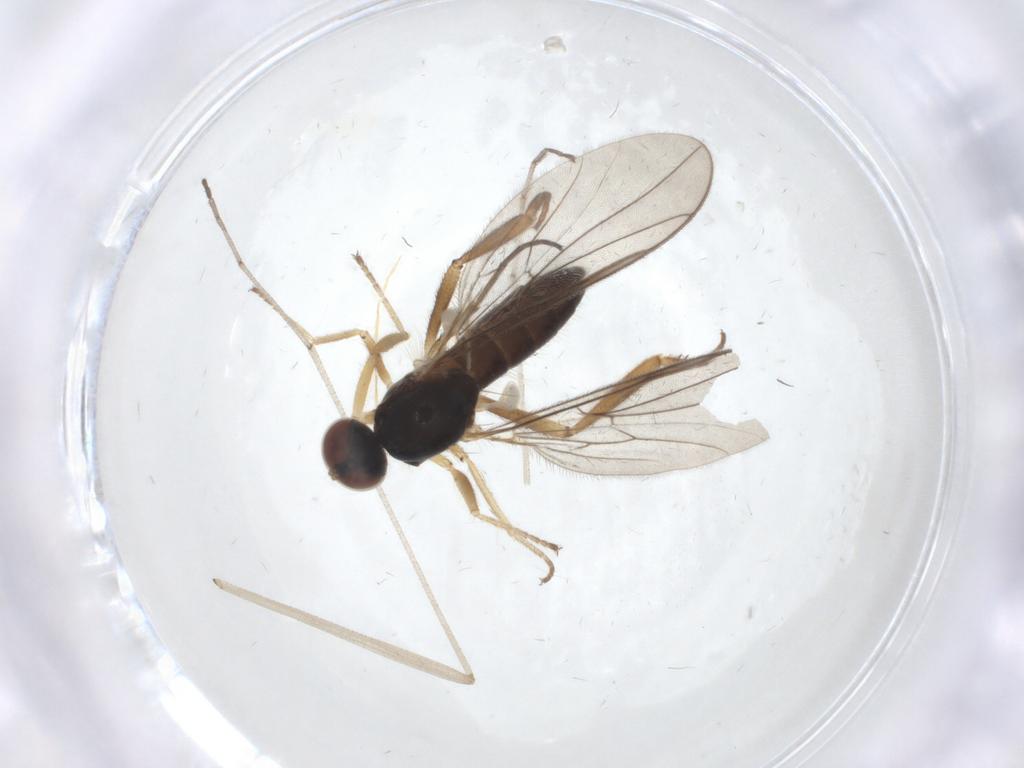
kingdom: Animalia
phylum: Arthropoda
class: Insecta
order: Diptera
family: Hybotidae
